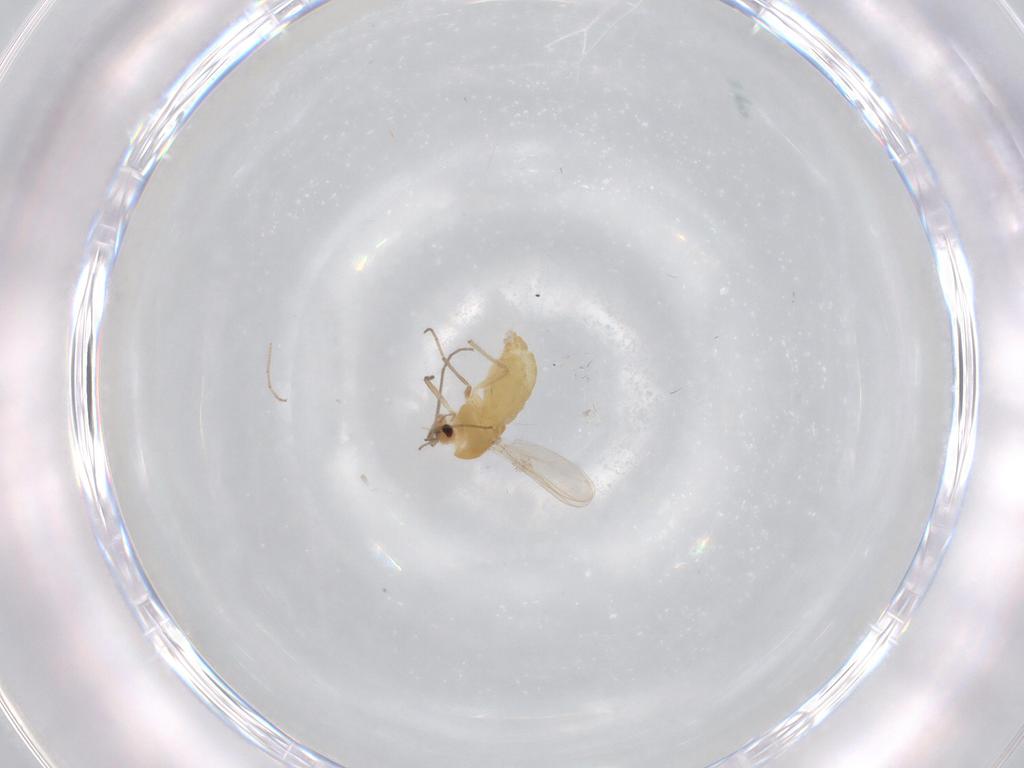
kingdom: Animalia
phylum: Arthropoda
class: Insecta
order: Diptera
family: Chironomidae
